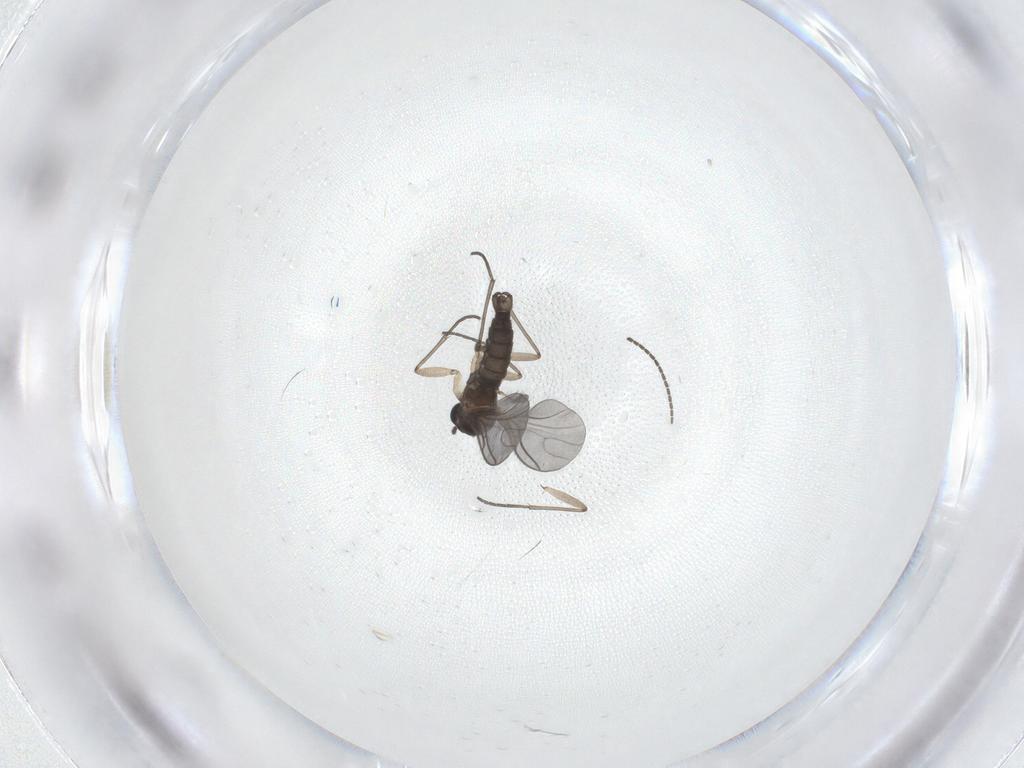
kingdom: Animalia
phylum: Arthropoda
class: Insecta
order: Diptera
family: Sciaridae
